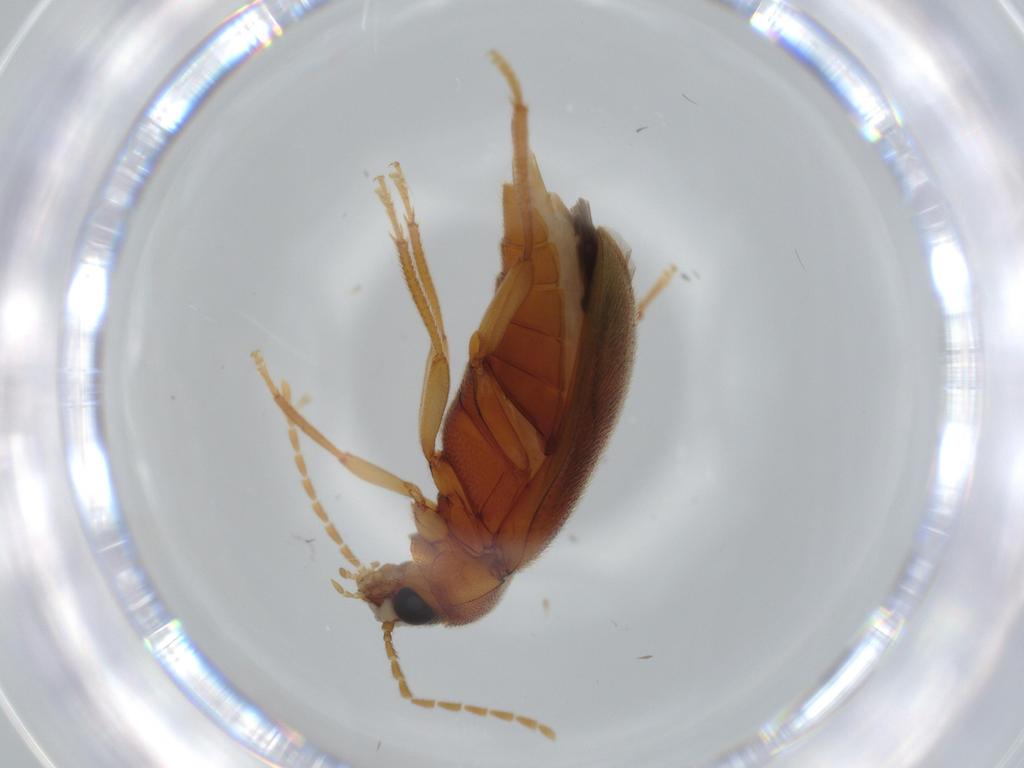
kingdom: Animalia
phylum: Arthropoda
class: Insecta
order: Coleoptera
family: Ptilodactylidae
